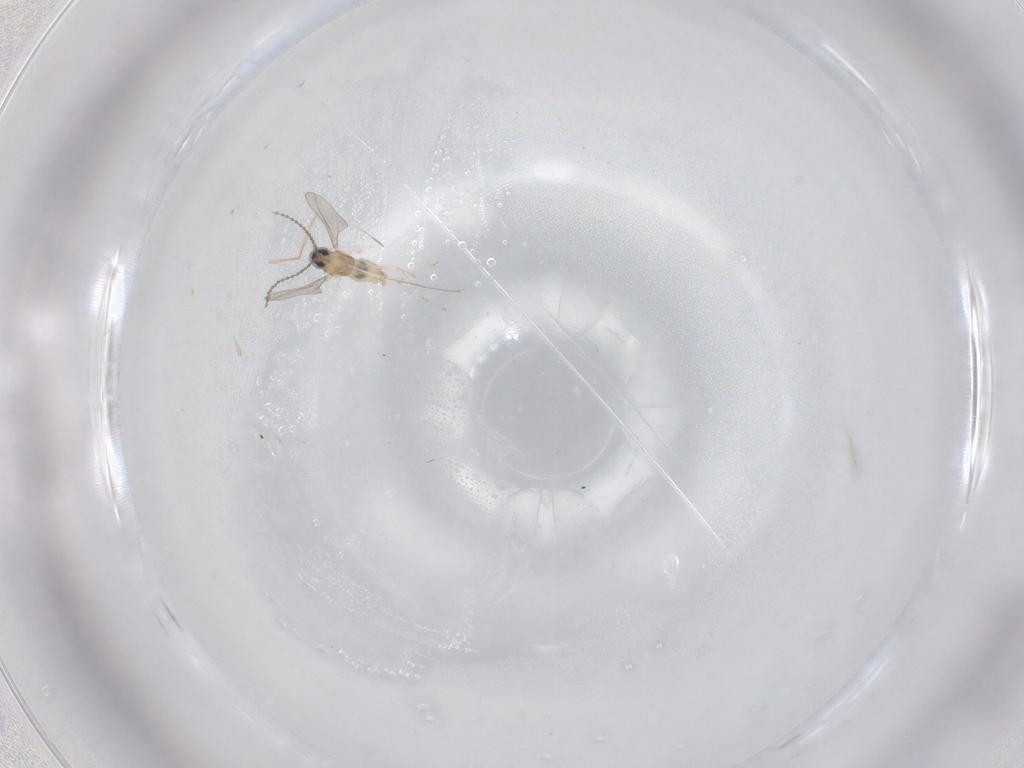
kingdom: Animalia
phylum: Arthropoda
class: Insecta
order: Diptera
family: Cecidomyiidae
